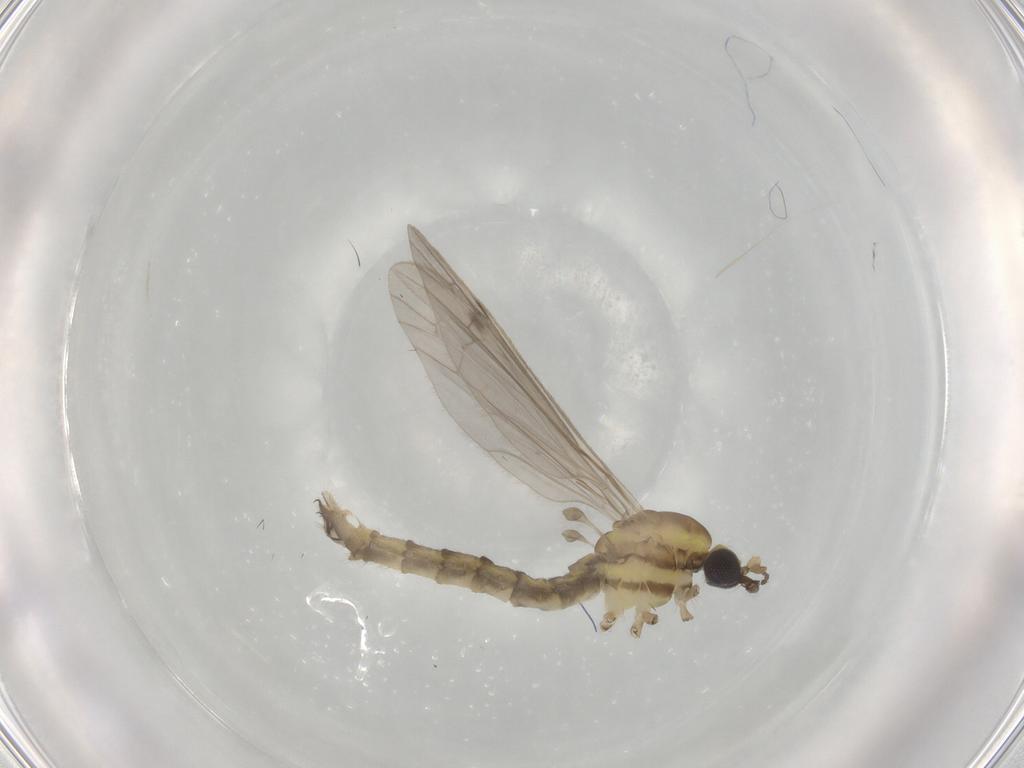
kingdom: Animalia
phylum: Arthropoda
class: Insecta
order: Diptera
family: Limoniidae
